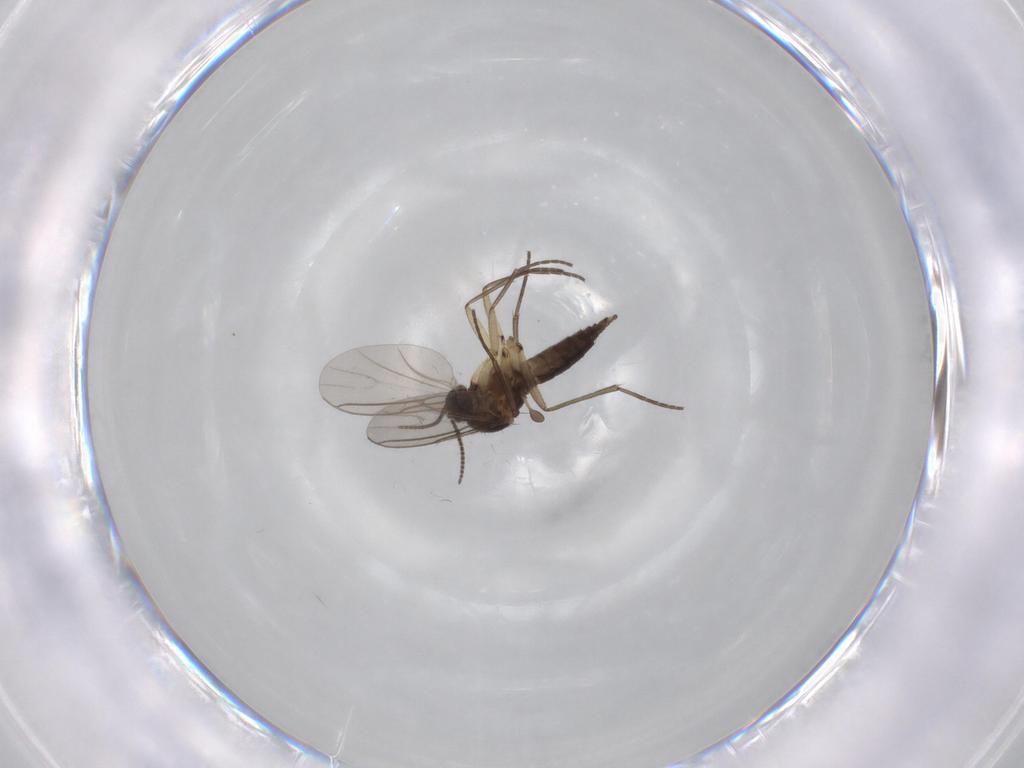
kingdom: Animalia
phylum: Arthropoda
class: Insecta
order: Diptera
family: Sciaridae
